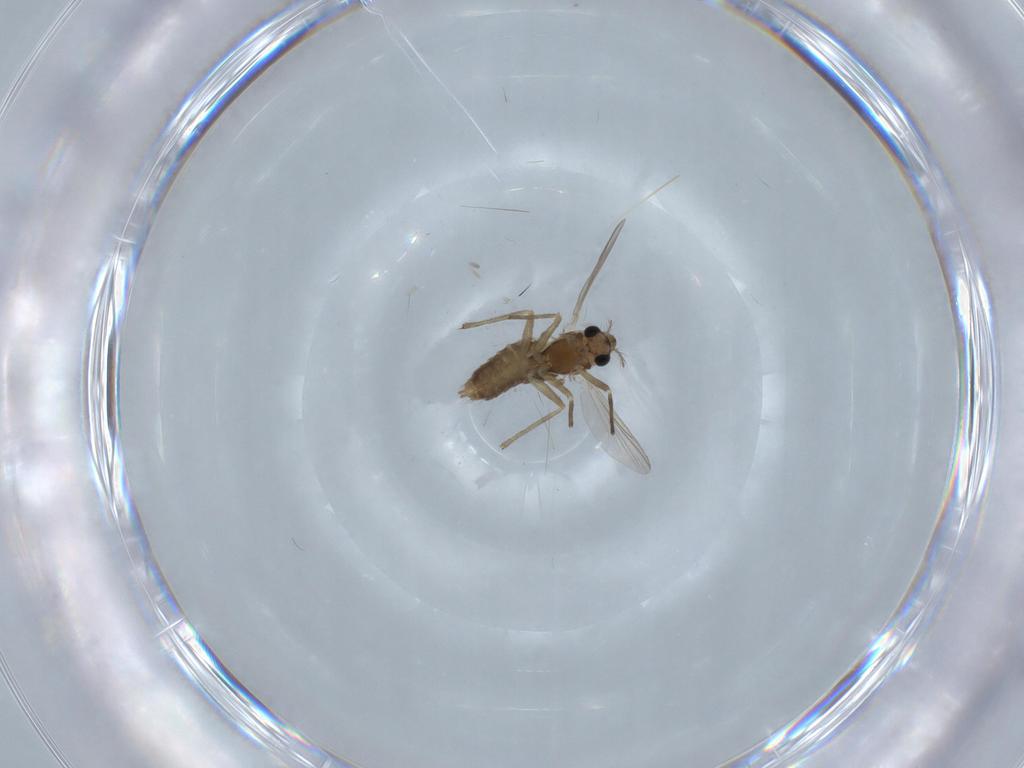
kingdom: Animalia
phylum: Arthropoda
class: Insecta
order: Diptera
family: Chironomidae
